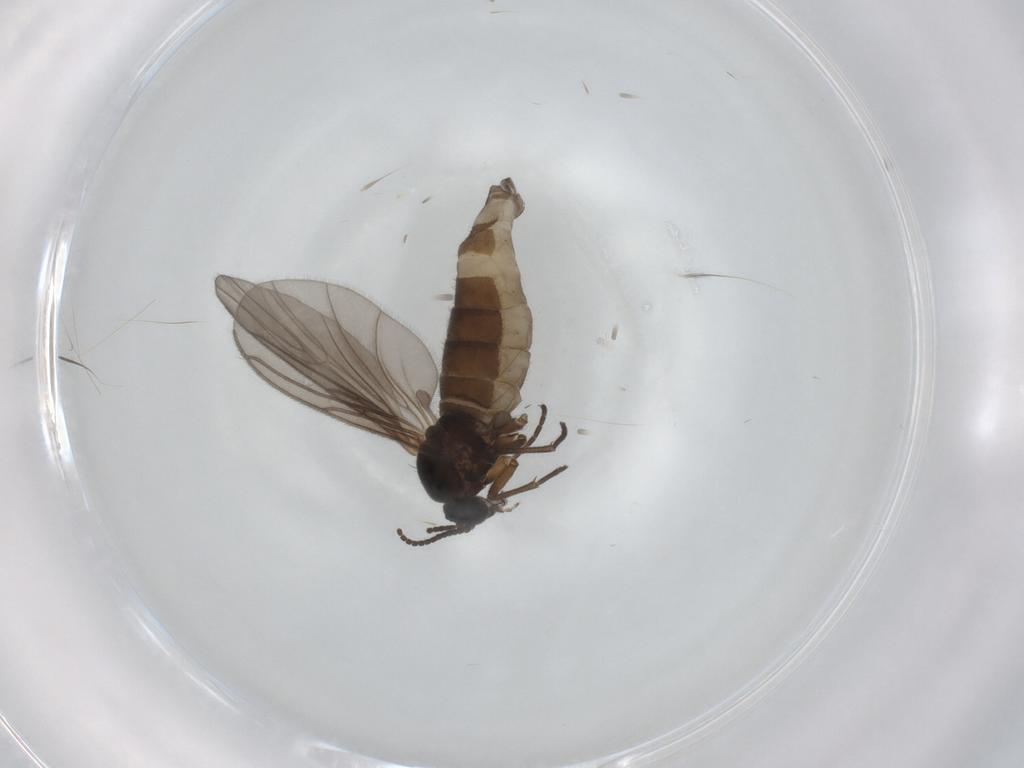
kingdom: Animalia
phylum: Arthropoda
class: Insecta
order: Diptera
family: Sciaridae
